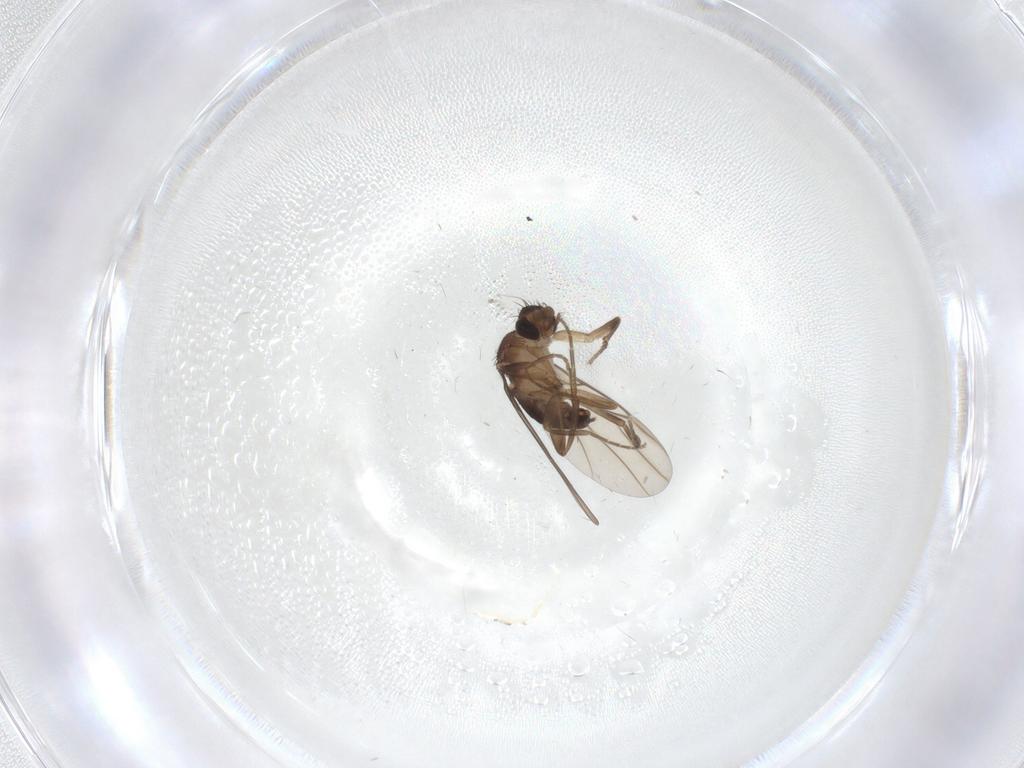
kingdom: Animalia
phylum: Arthropoda
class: Insecta
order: Diptera
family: Phoridae
